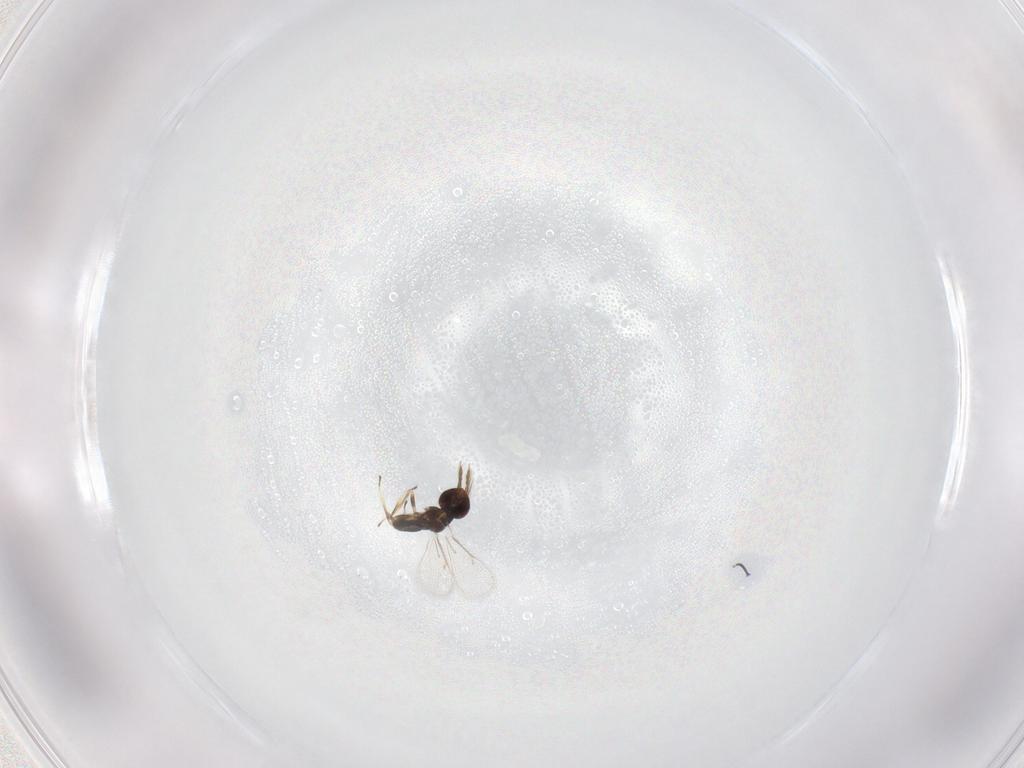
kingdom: Animalia
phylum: Arthropoda
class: Insecta
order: Hymenoptera
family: Eulophidae
